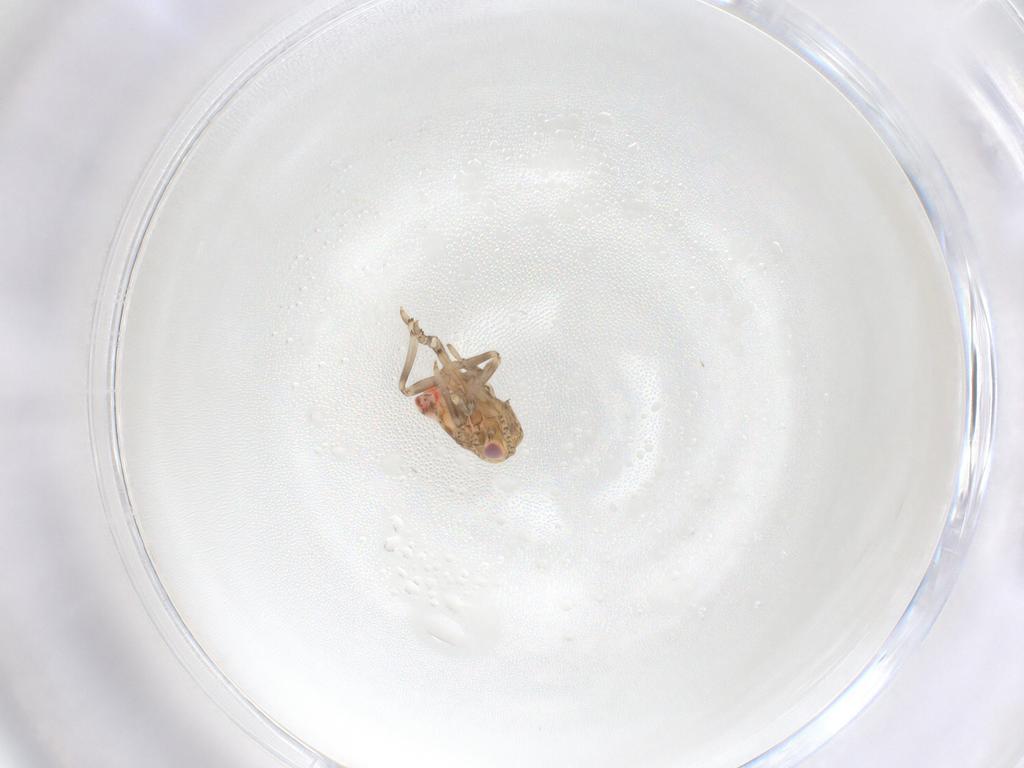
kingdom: Animalia
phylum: Arthropoda
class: Insecta
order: Hemiptera
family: Nogodinidae
